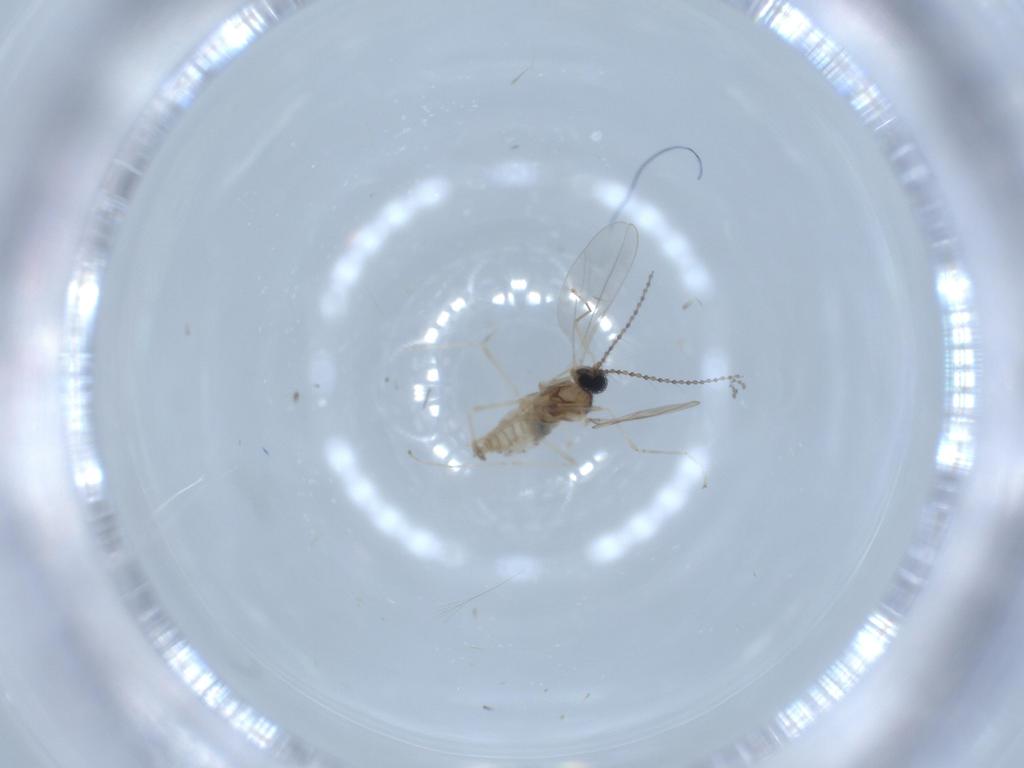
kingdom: Animalia
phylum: Arthropoda
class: Insecta
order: Diptera
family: Cecidomyiidae
